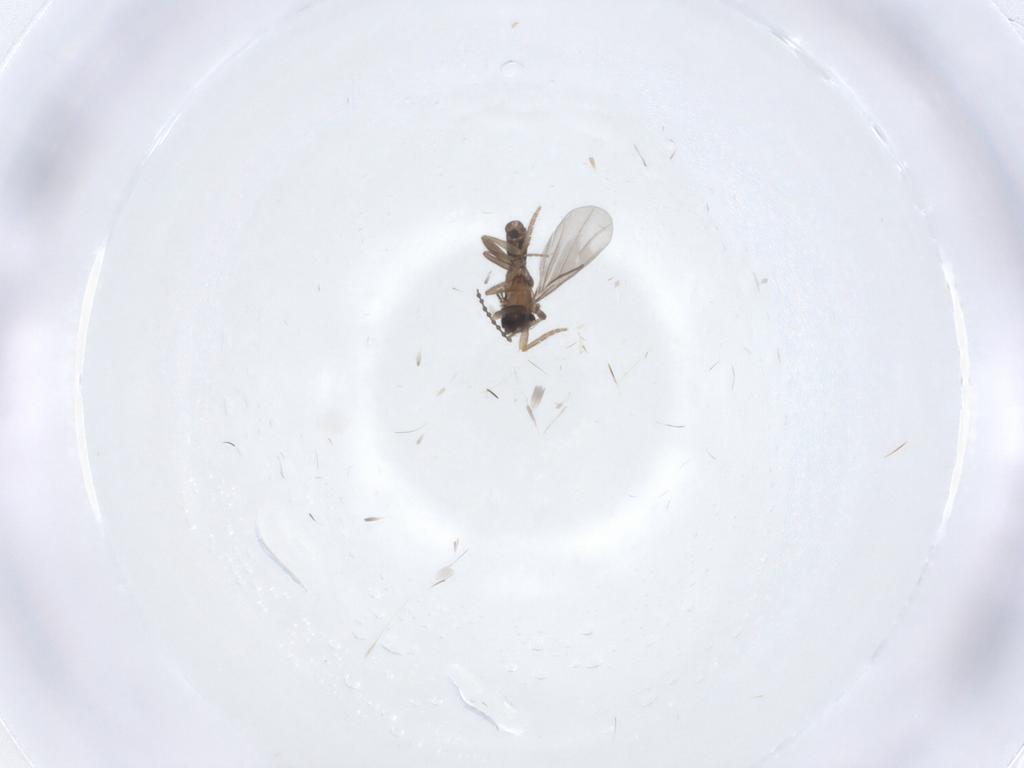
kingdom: Animalia
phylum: Arthropoda
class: Insecta
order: Diptera
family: Cecidomyiidae
